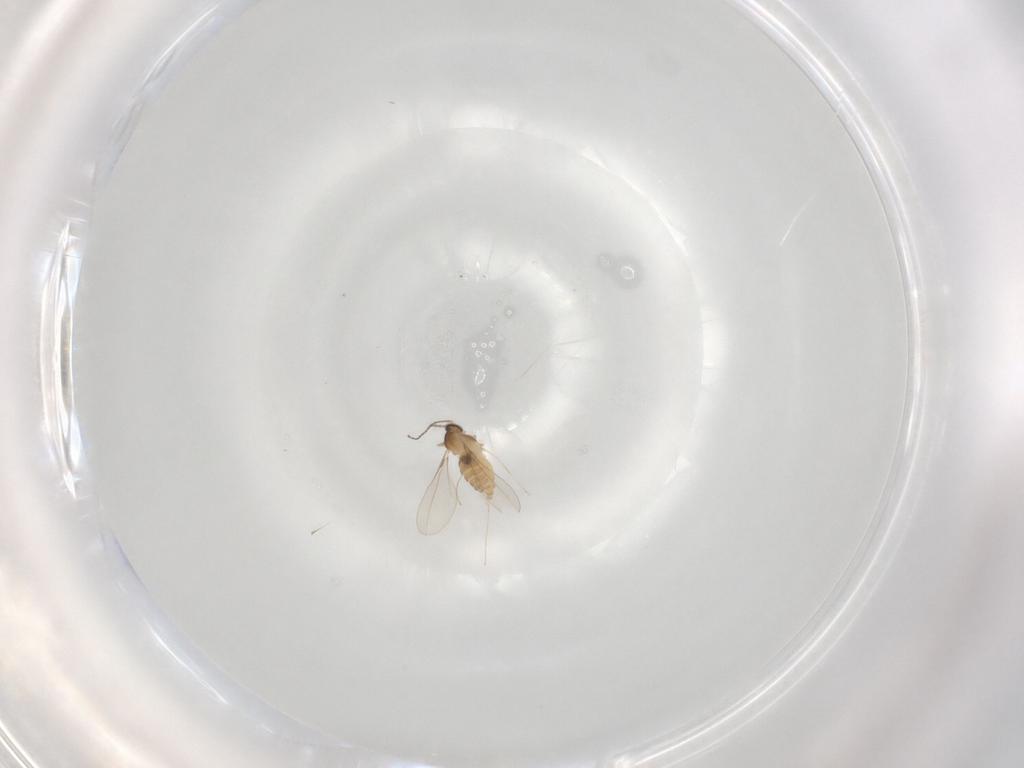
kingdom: Animalia
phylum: Arthropoda
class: Insecta
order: Diptera
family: Cecidomyiidae
